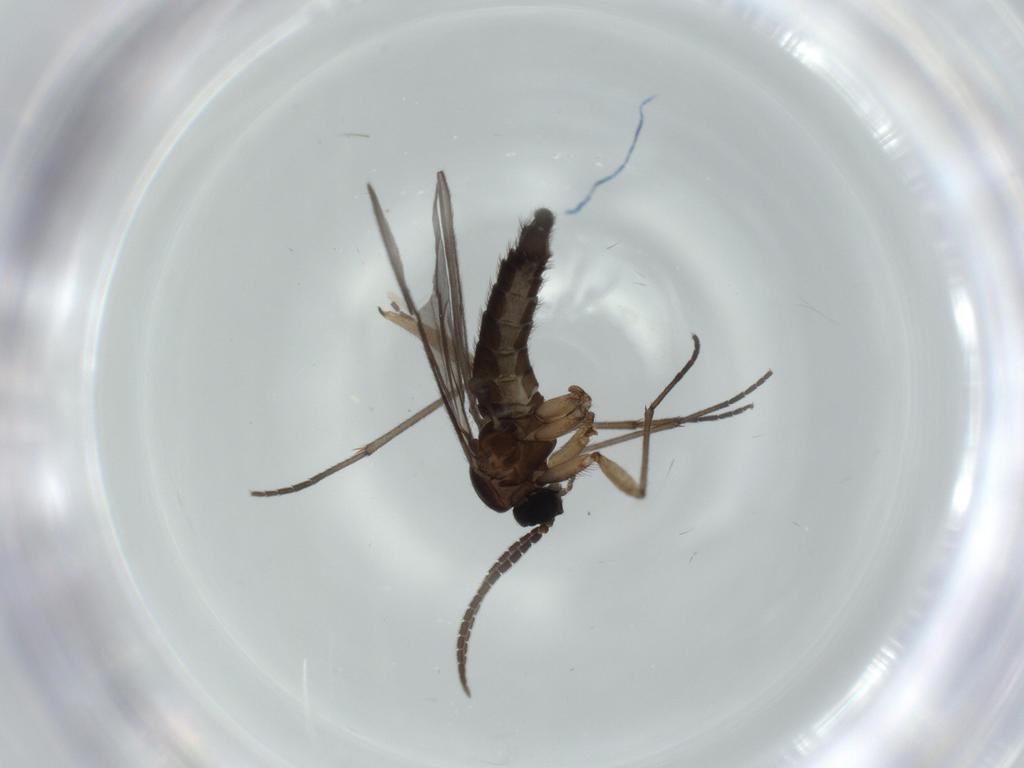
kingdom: Animalia
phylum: Arthropoda
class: Insecta
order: Diptera
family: Sciaridae
